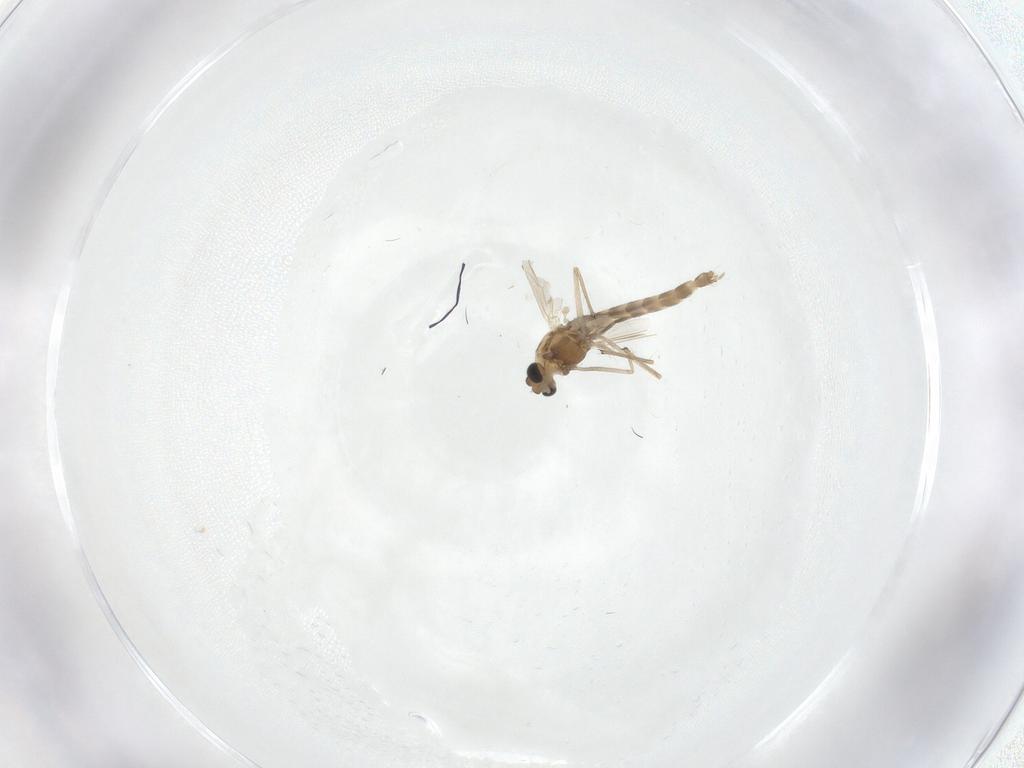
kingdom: Animalia
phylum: Arthropoda
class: Insecta
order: Diptera
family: Chironomidae
